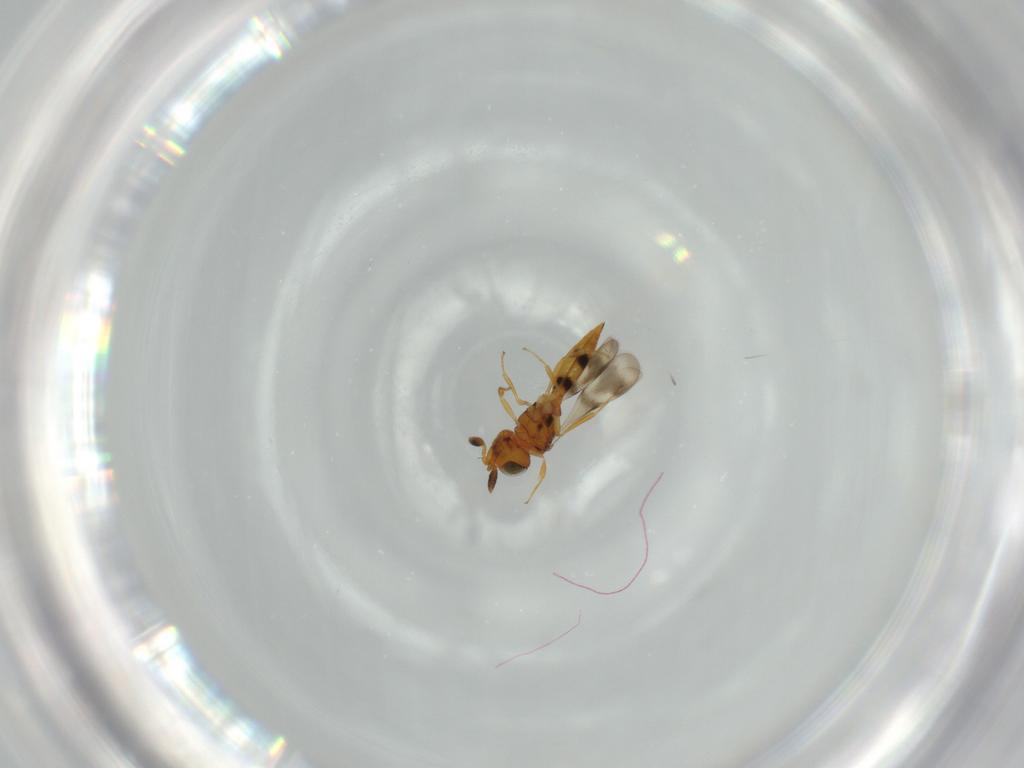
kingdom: Animalia
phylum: Arthropoda
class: Insecta
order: Hymenoptera
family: Scelionidae
